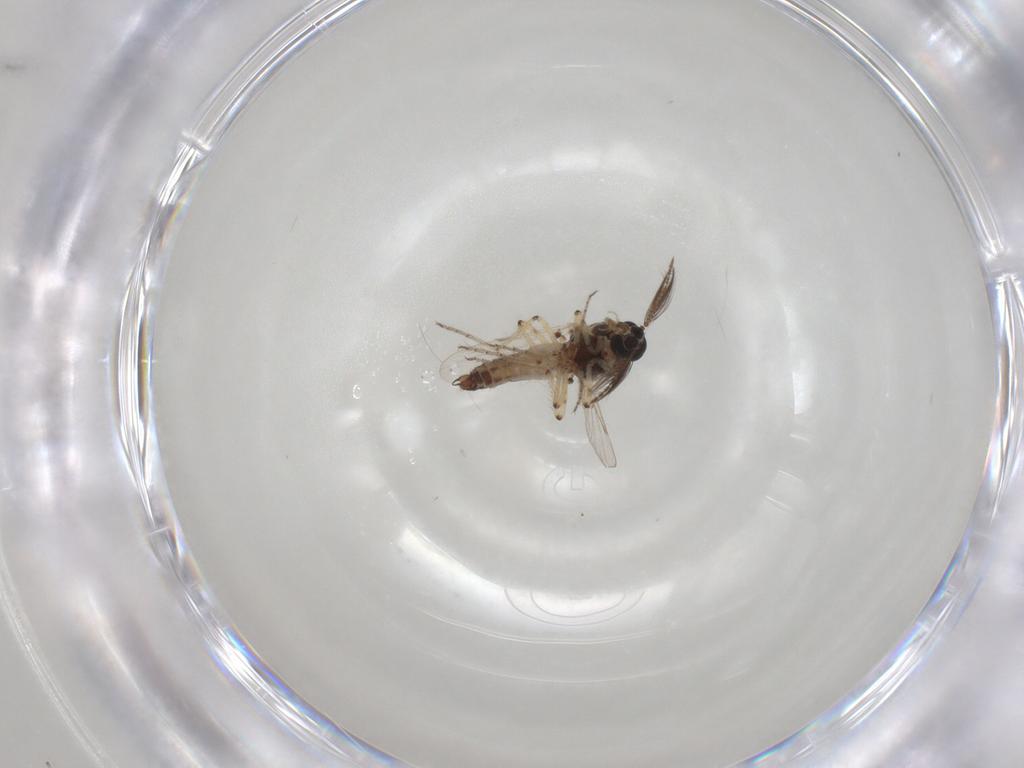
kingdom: Animalia
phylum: Arthropoda
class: Insecta
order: Diptera
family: Ceratopogonidae
